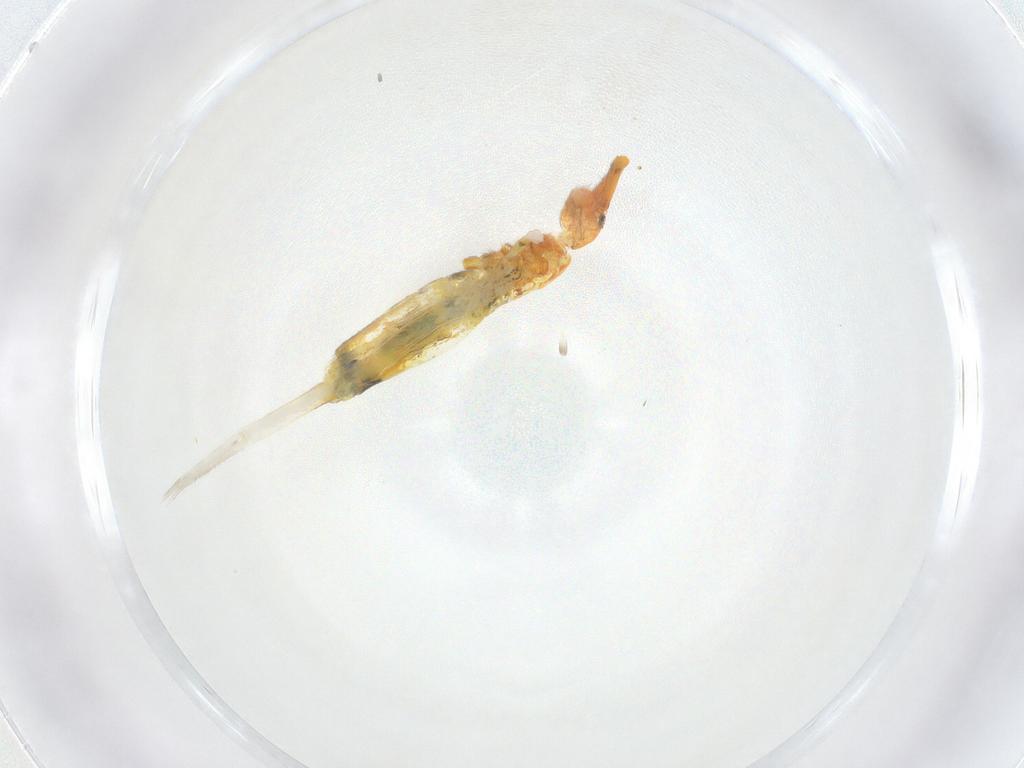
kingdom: Animalia
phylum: Arthropoda
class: Collembola
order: Entomobryomorpha
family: Entomobryidae
